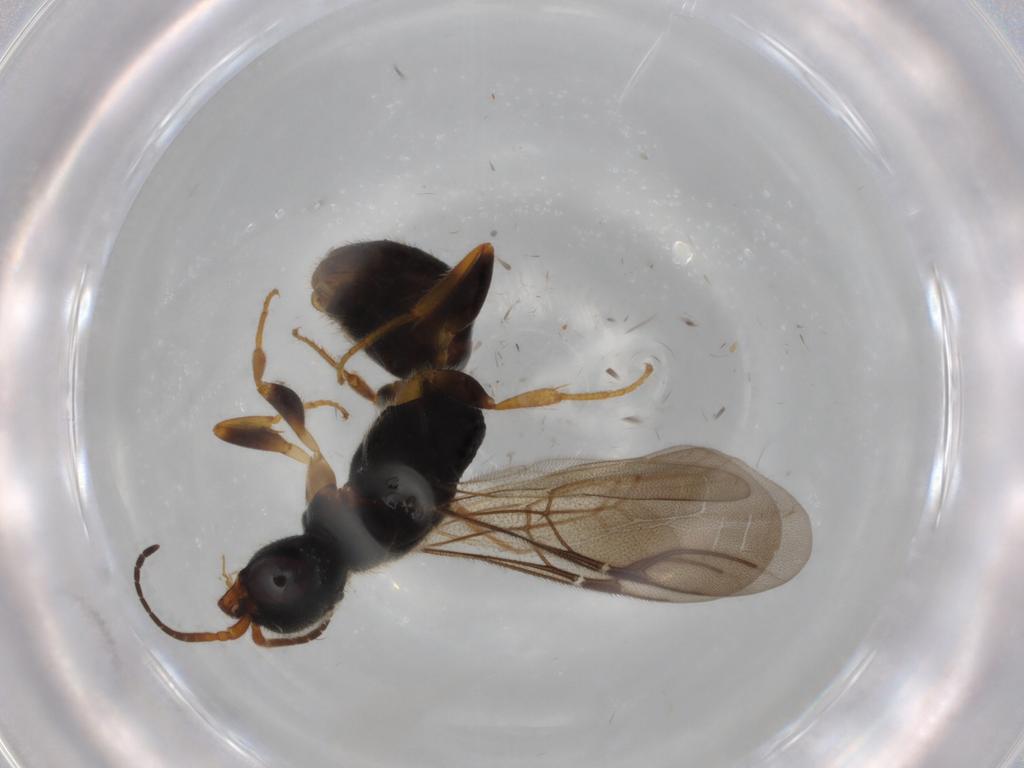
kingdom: Animalia
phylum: Arthropoda
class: Insecta
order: Hymenoptera
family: Bethylidae
